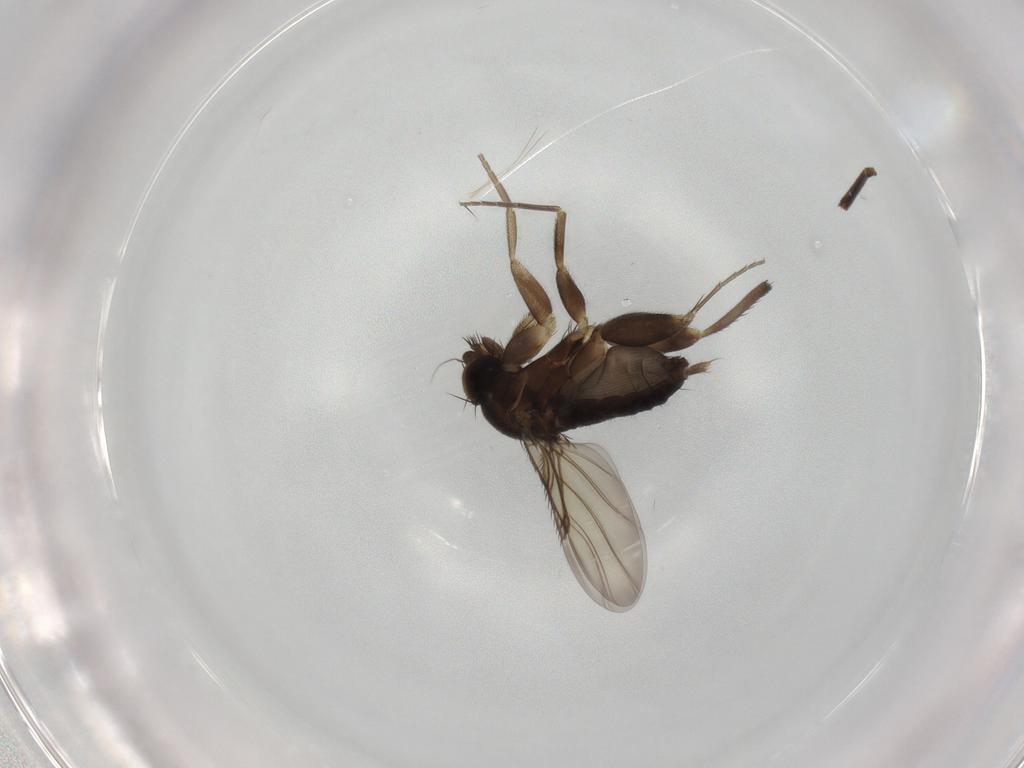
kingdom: Animalia
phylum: Arthropoda
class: Insecta
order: Diptera
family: Phoridae
